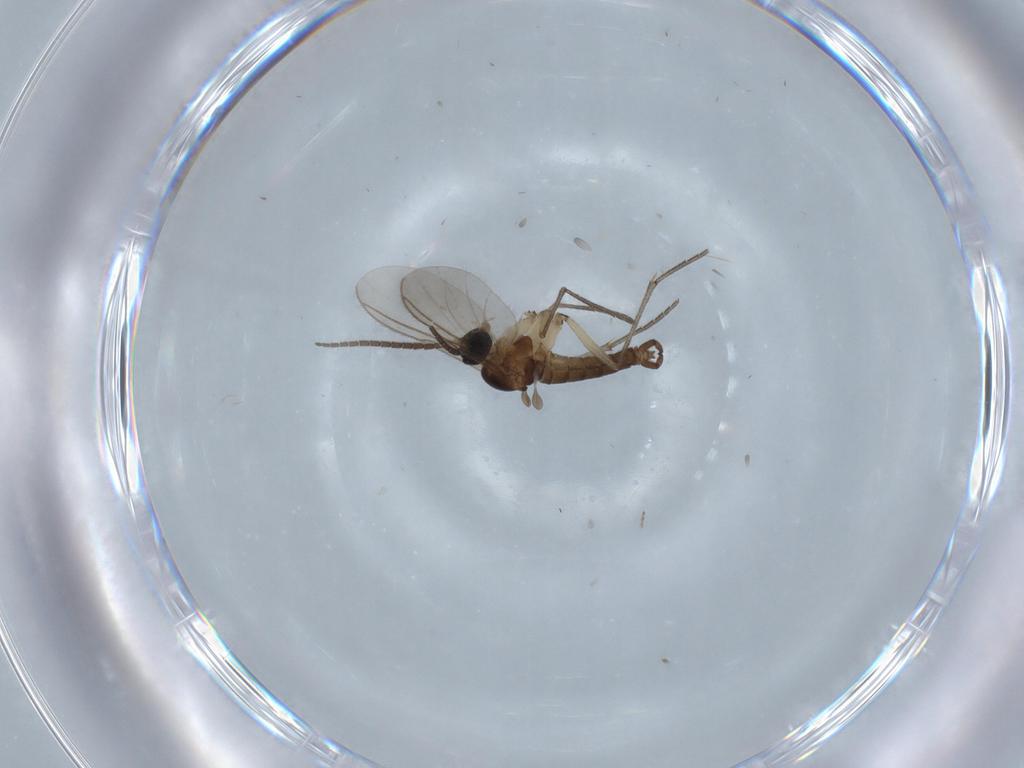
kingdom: Animalia
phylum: Arthropoda
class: Insecta
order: Diptera
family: Cecidomyiidae
